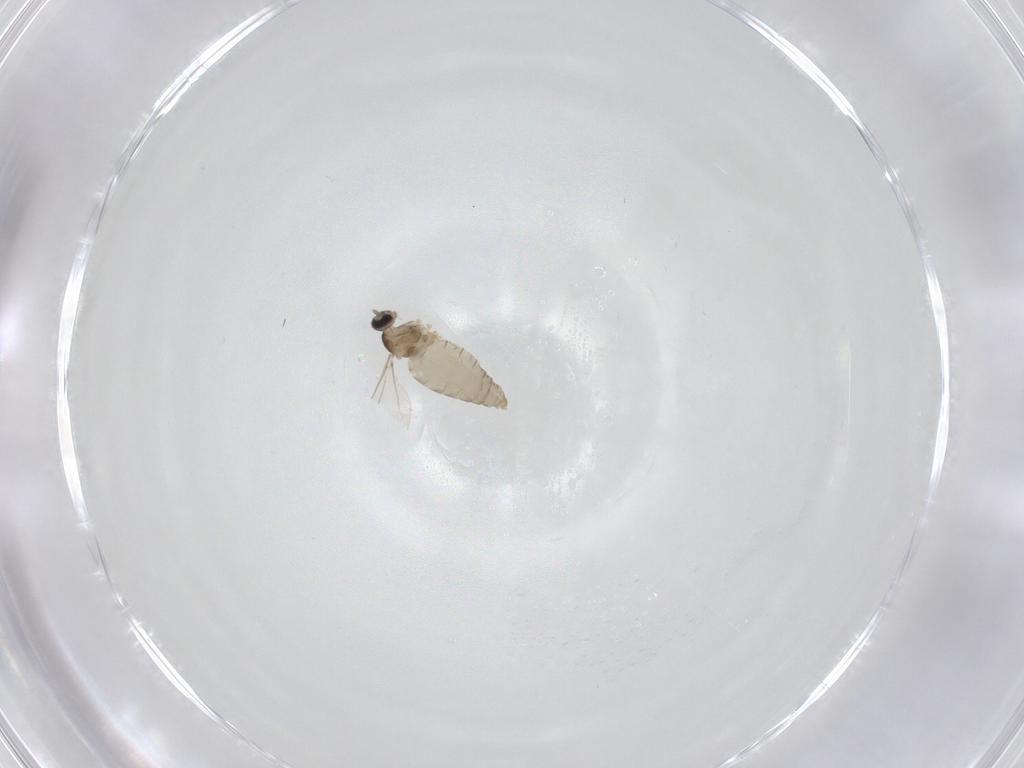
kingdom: Animalia
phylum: Arthropoda
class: Insecta
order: Diptera
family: Cecidomyiidae
